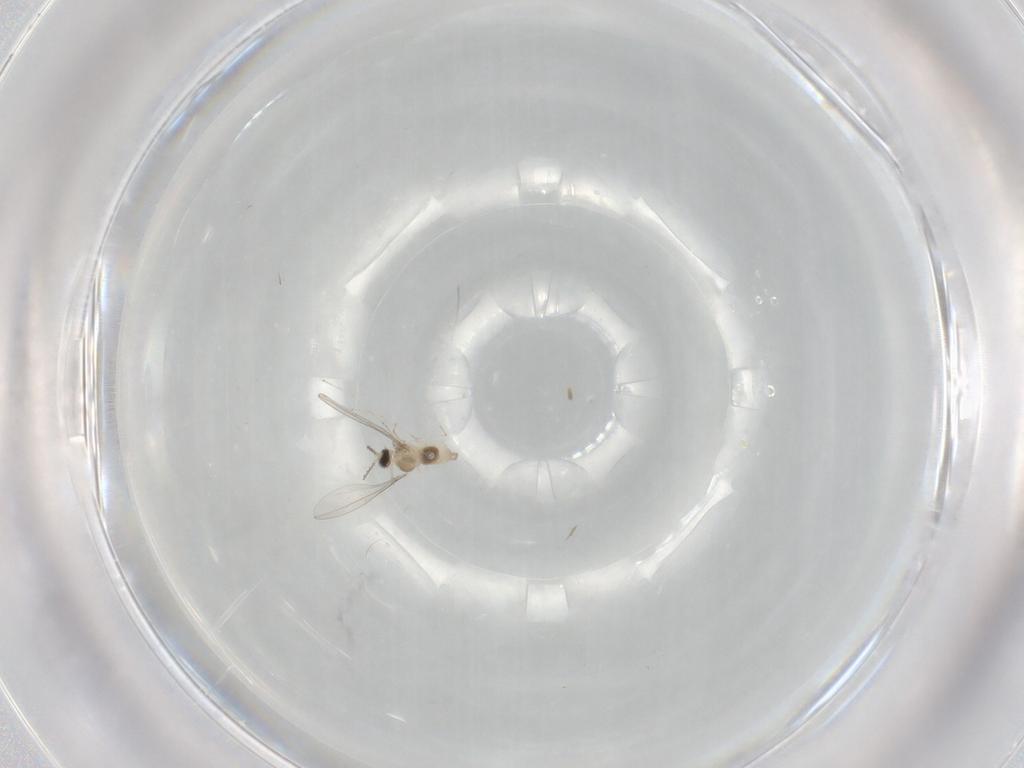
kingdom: Animalia
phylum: Arthropoda
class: Insecta
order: Diptera
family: Cecidomyiidae
